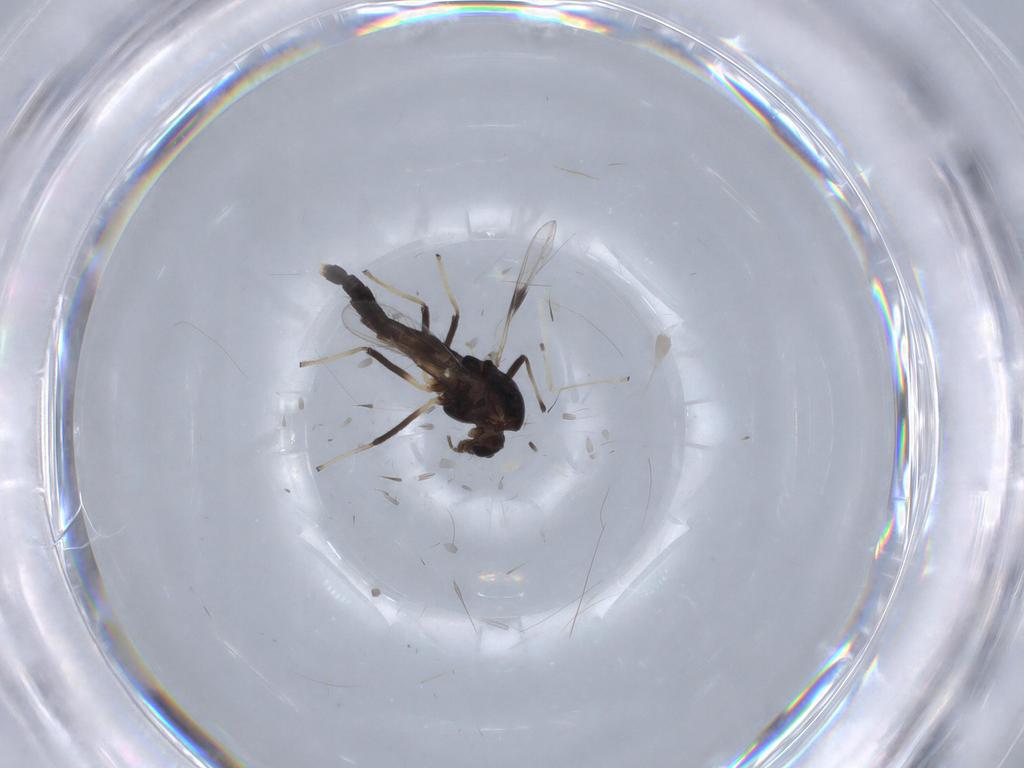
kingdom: Animalia
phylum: Arthropoda
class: Insecta
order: Diptera
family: Chironomidae
